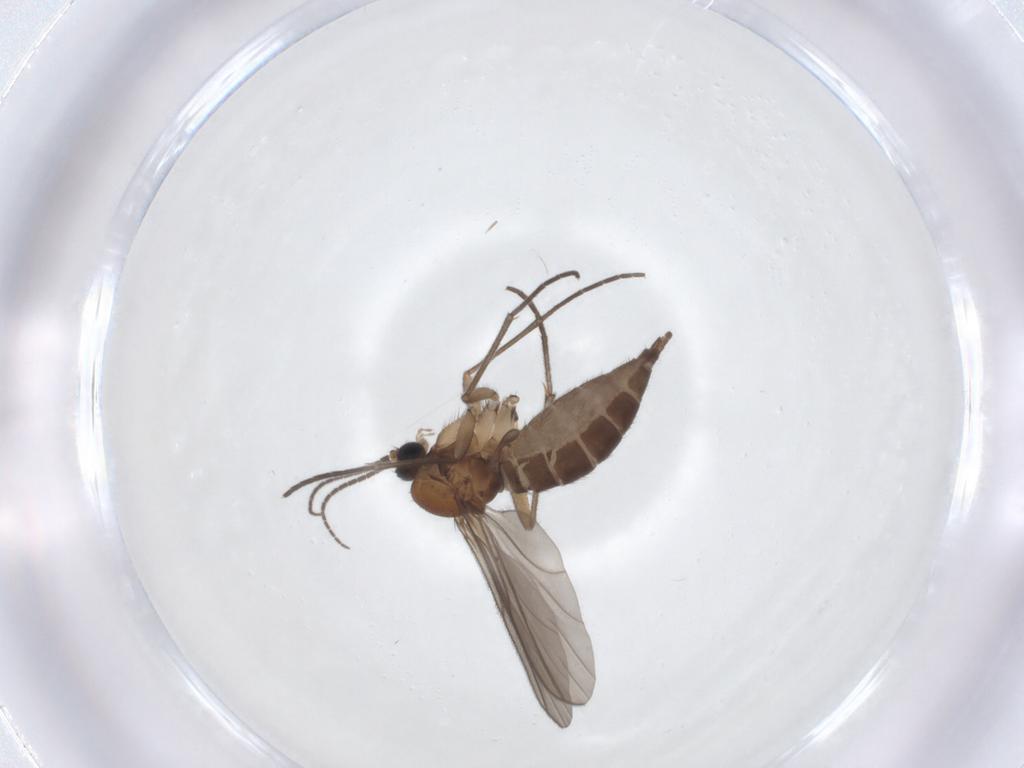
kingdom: Animalia
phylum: Arthropoda
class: Insecta
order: Diptera
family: Sciaridae
